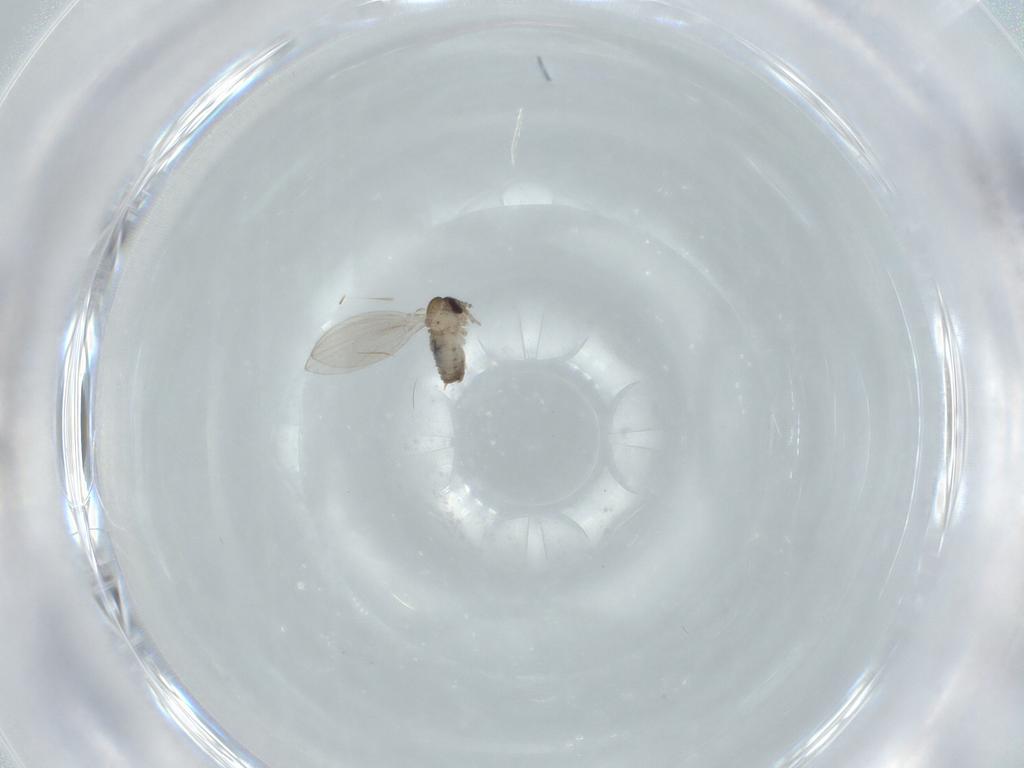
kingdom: Animalia
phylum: Arthropoda
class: Insecta
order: Diptera
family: Psychodidae
